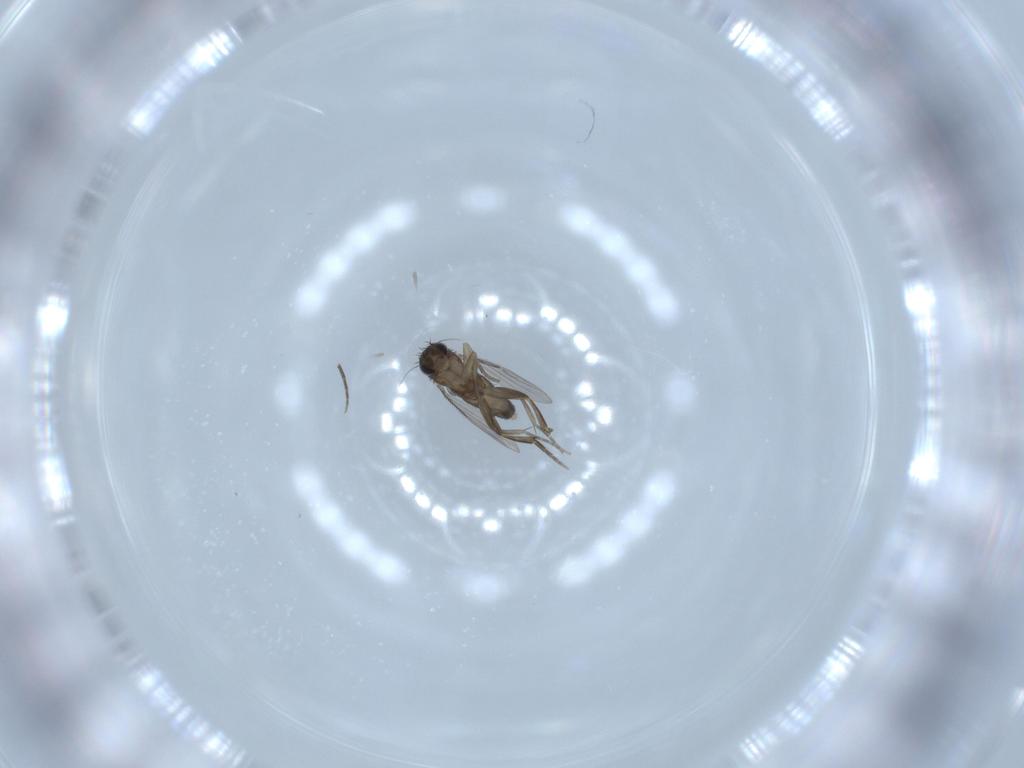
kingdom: Animalia
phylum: Arthropoda
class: Insecta
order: Diptera
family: Phoridae
